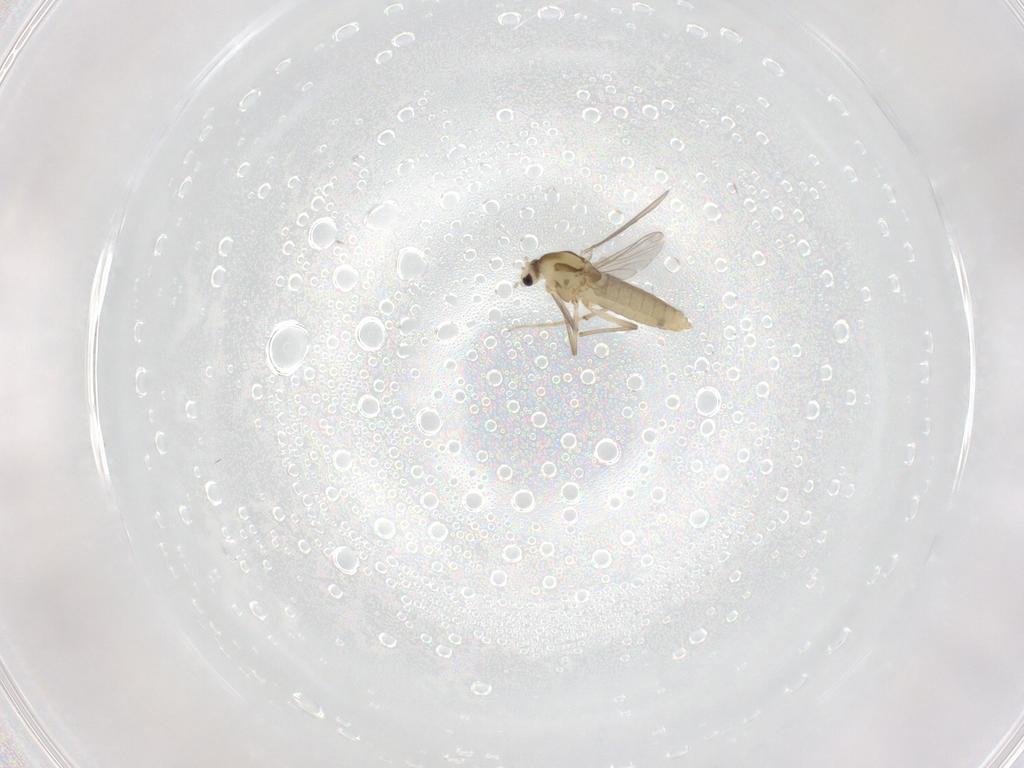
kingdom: Animalia
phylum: Arthropoda
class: Insecta
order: Diptera
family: Chironomidae
